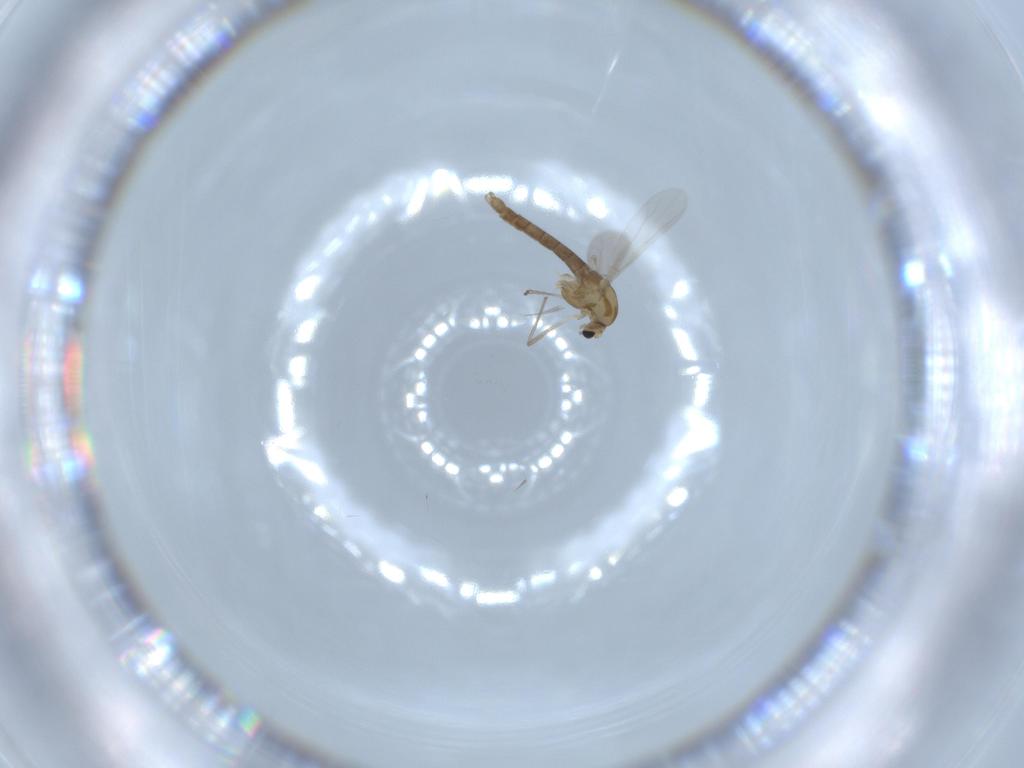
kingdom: Animalia
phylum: Arthropoda
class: Insecta
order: Diptera
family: Sciaridae
